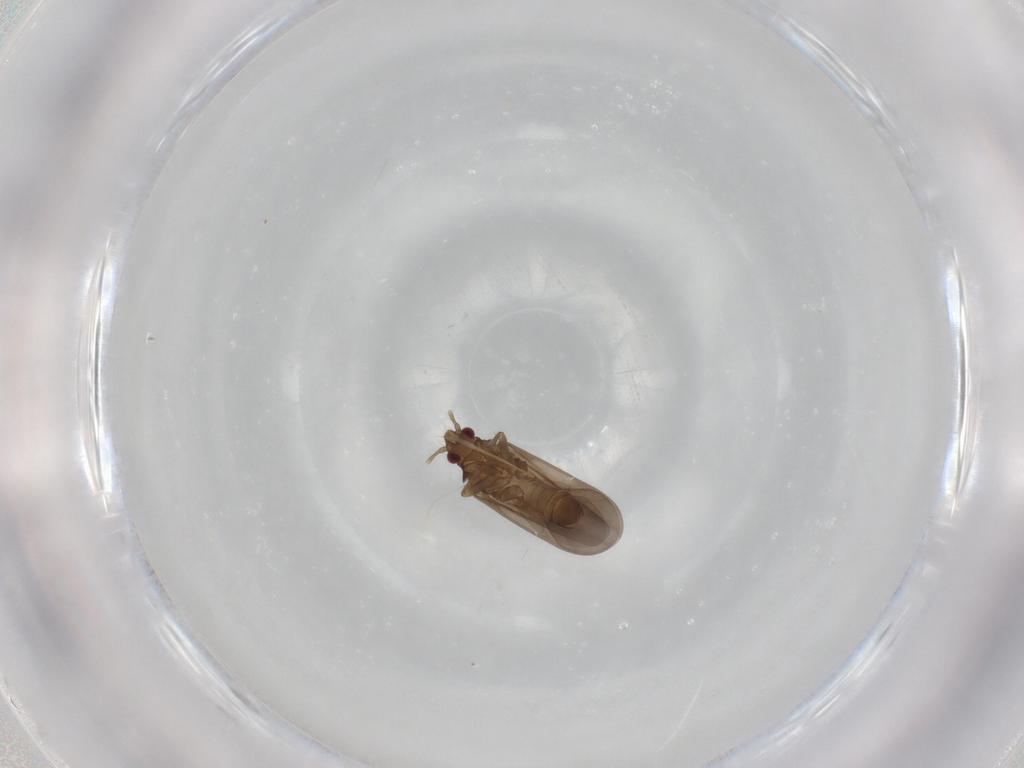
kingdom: Animalia
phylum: Arthropoda
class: Insecta
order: Hemiptera
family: Ceratocombidae
